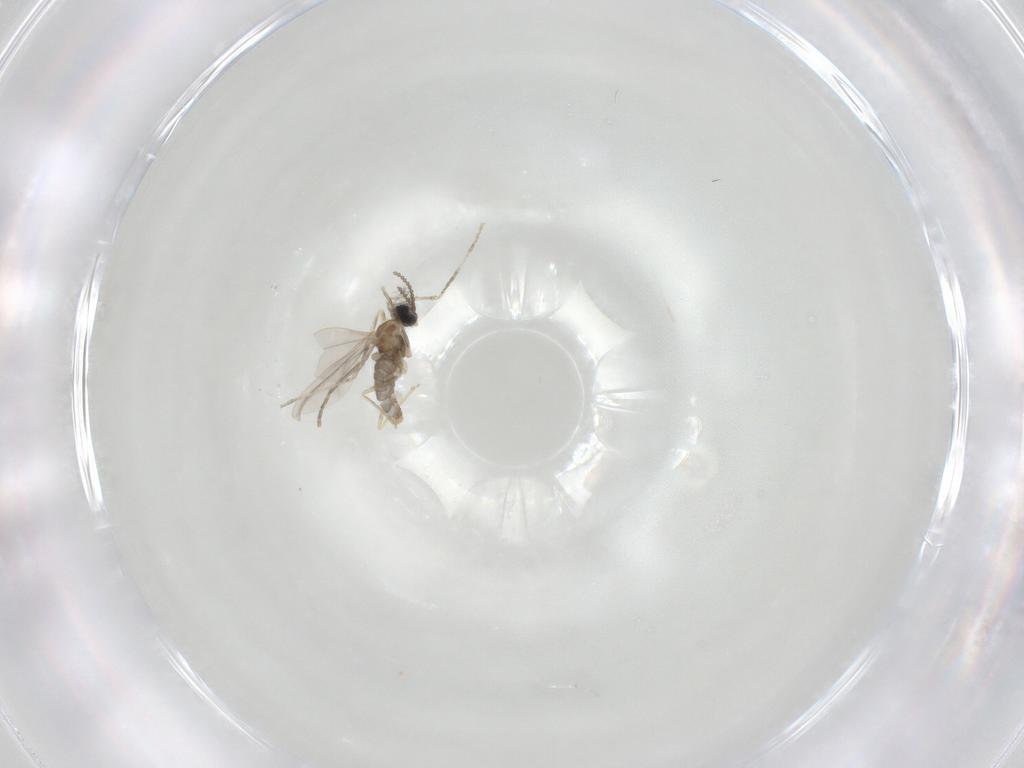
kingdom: Animalia
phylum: Arthropoda
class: Insecta
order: Diptera
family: Cecidomyiidae
